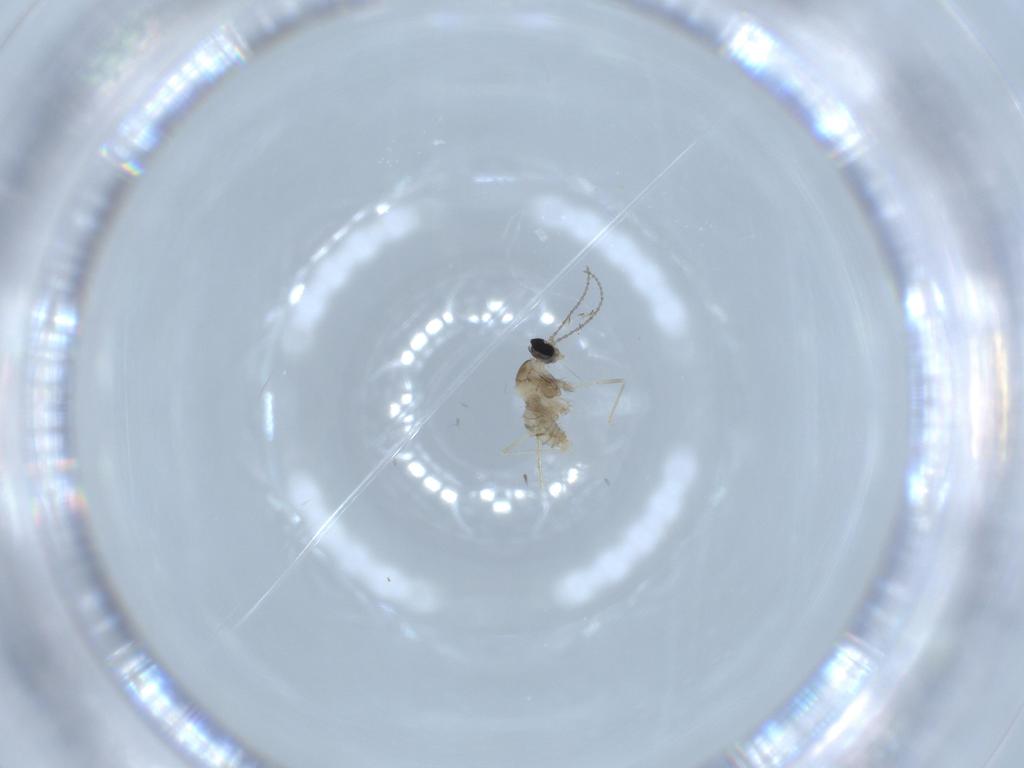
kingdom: Animalia
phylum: Arthropoda
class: Insecta
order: Diptera
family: Cecidomyiidae
